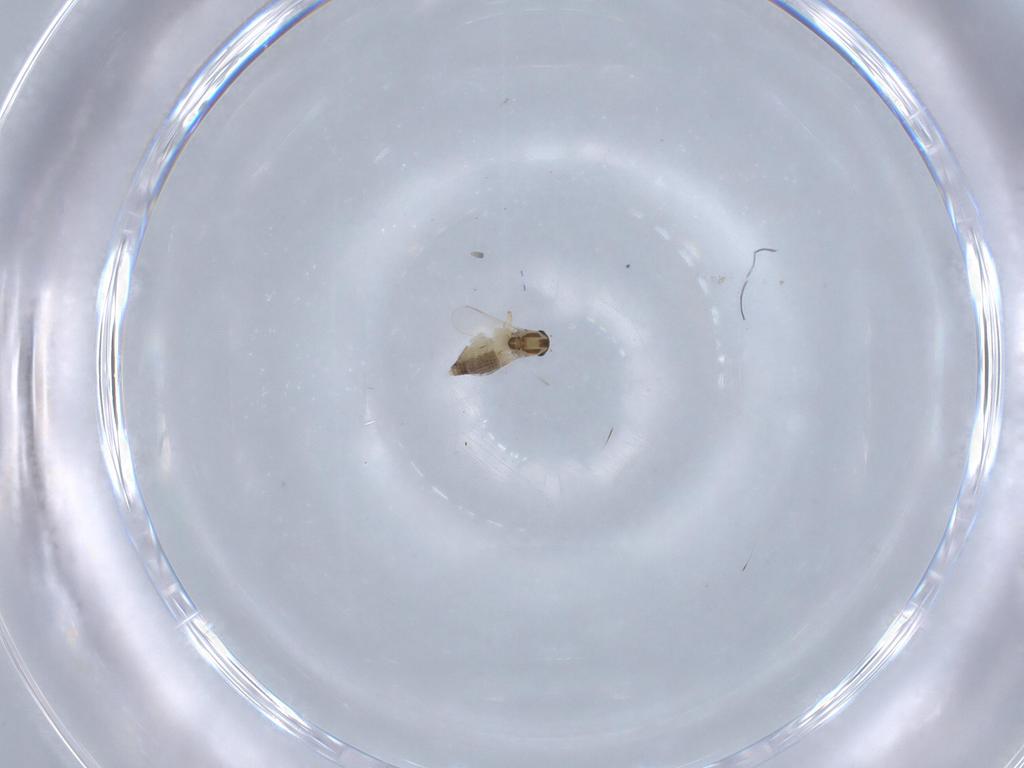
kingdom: Animalia
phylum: Arthropoda
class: Insecta
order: Diptera
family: Chironomidae
